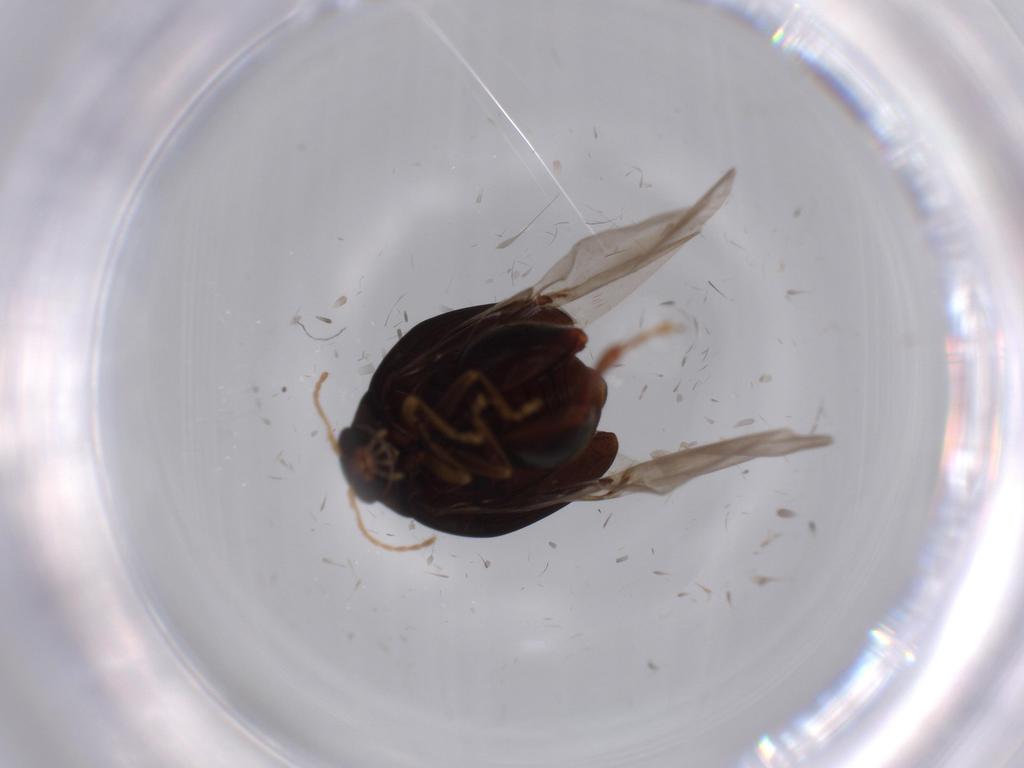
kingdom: Animalia
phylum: Arthropoda
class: Insecta
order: Coleoptera
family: Chrysomelidae
